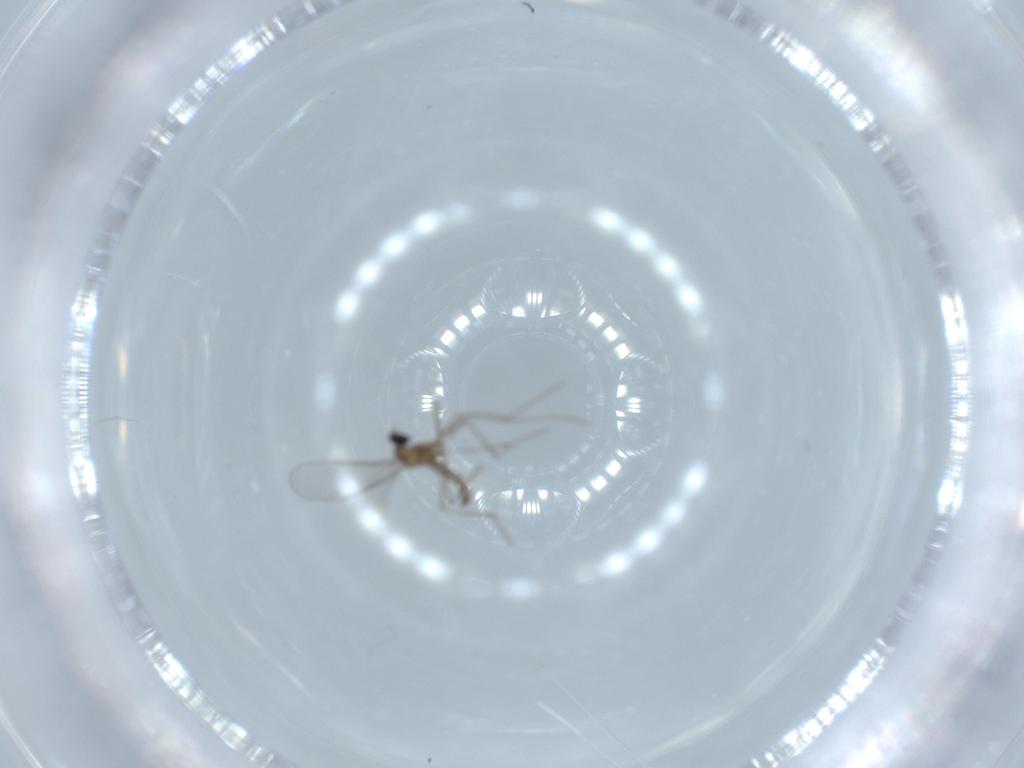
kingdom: Animalia
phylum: Arthropoda
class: Insecta
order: Diptera
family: Cecidomyiidae
